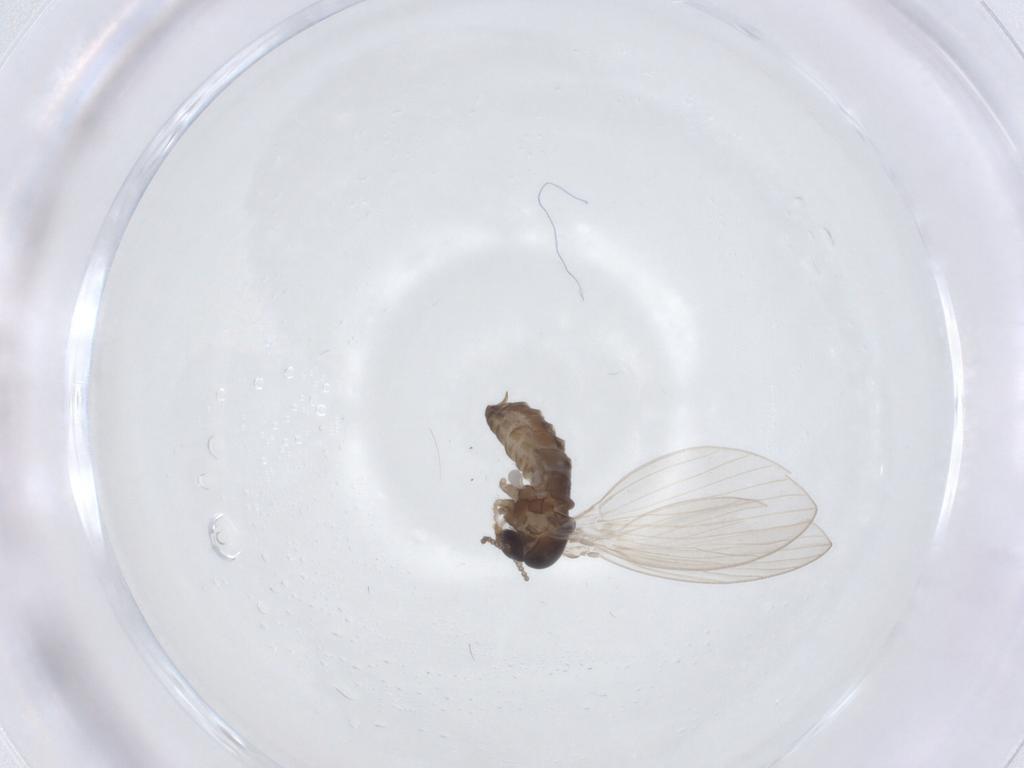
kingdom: Animalia
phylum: Arthropoda
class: Insecta
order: Diptera
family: Psychodidae
